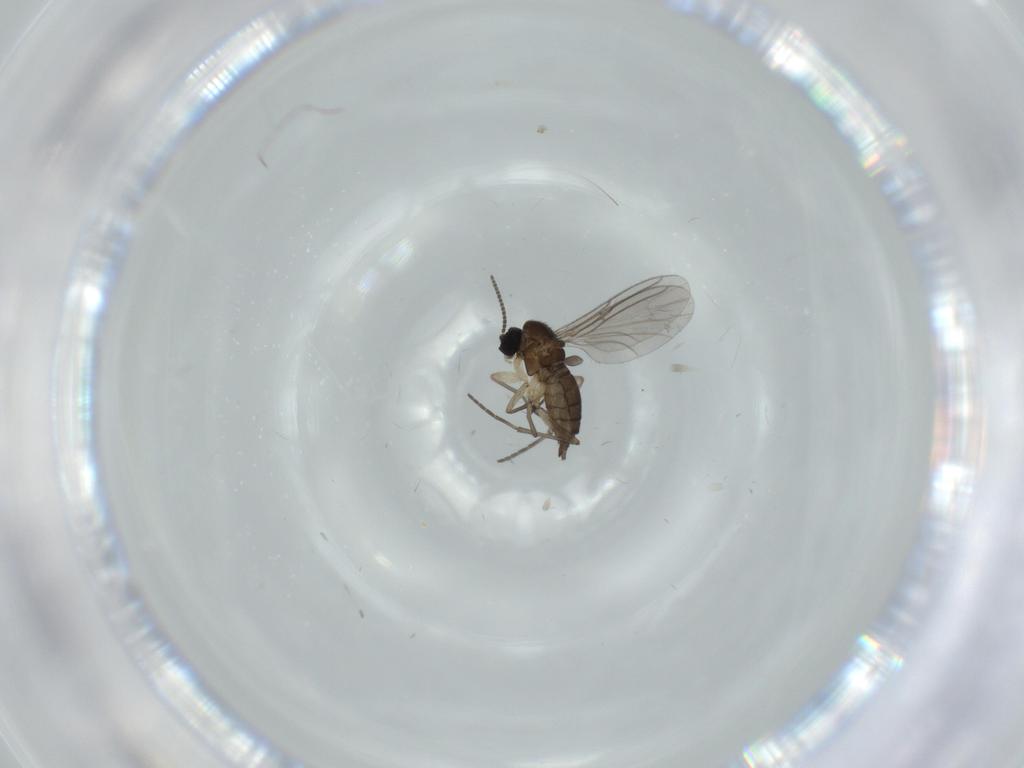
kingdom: Animalia
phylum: Arthropoda
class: Insecta
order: Diptera
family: Sciaridae
